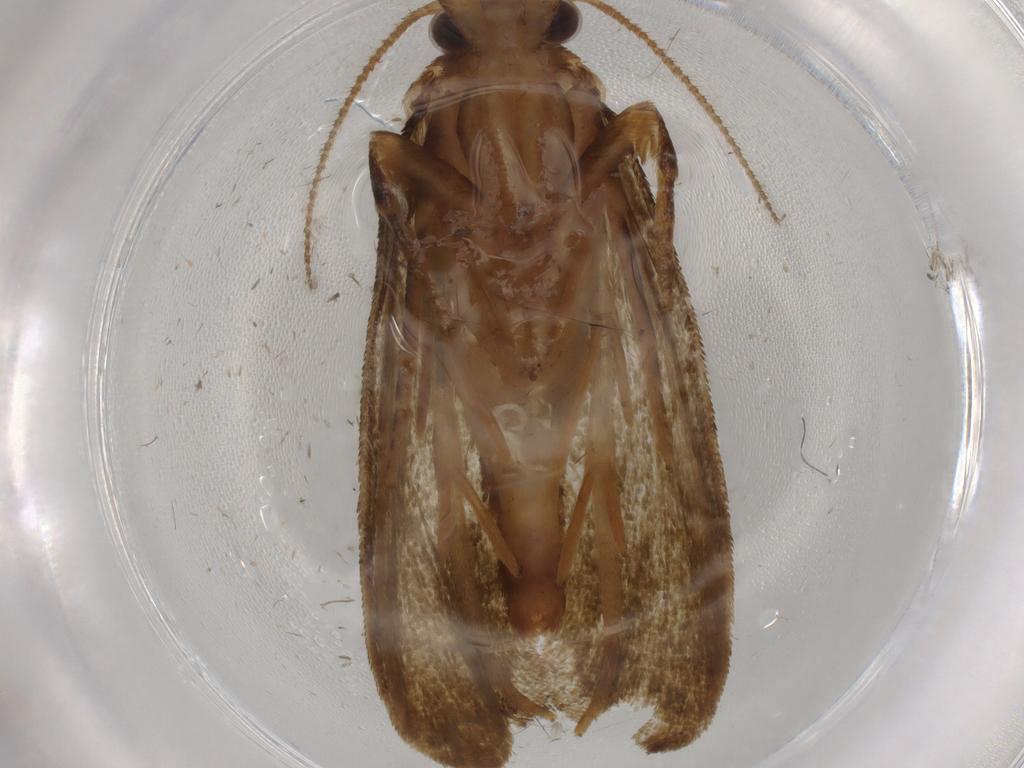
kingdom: Animalia
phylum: Arthropoda
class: Insecta
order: Lepidoptera
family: Geometridae
